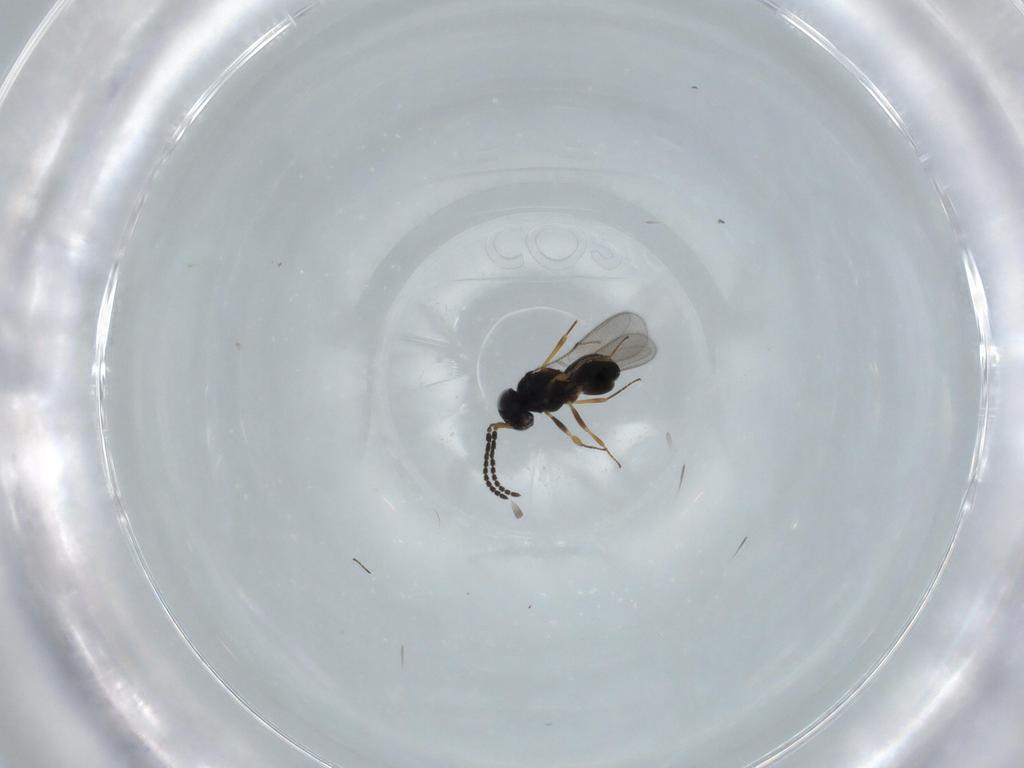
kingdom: Animalia
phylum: Arthropoda
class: Insecta
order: Hymenoptera
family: Scelionidae
